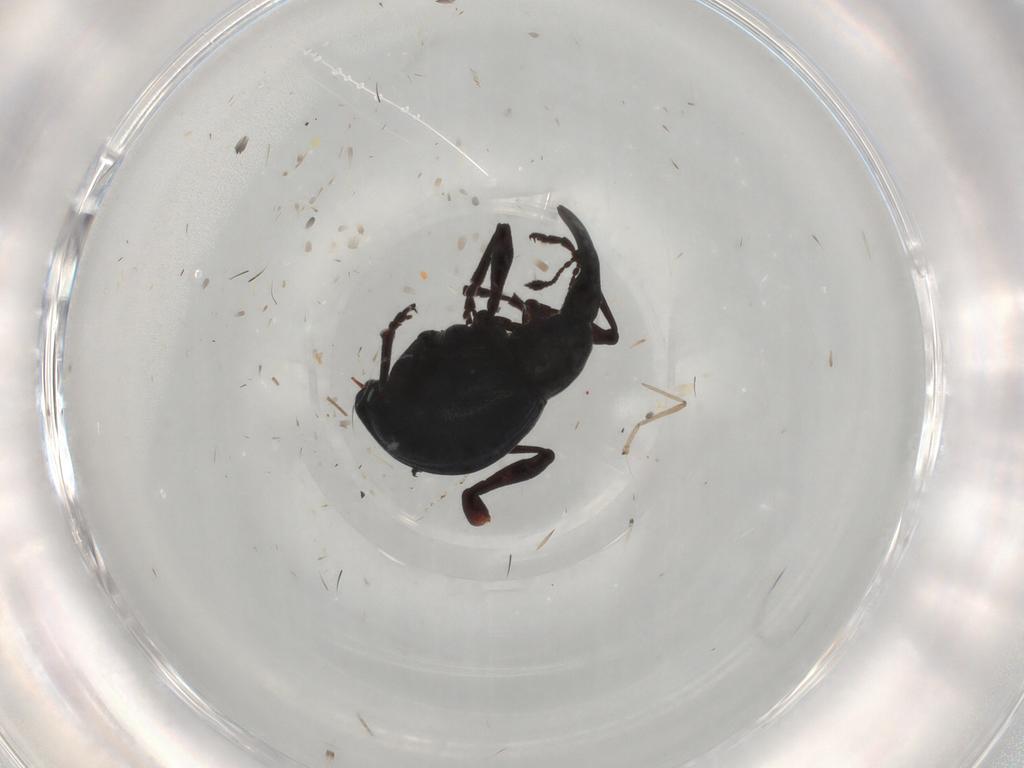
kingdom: Animalia
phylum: Arthropoda
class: Insecta
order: Coleoptera
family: Apionidae
